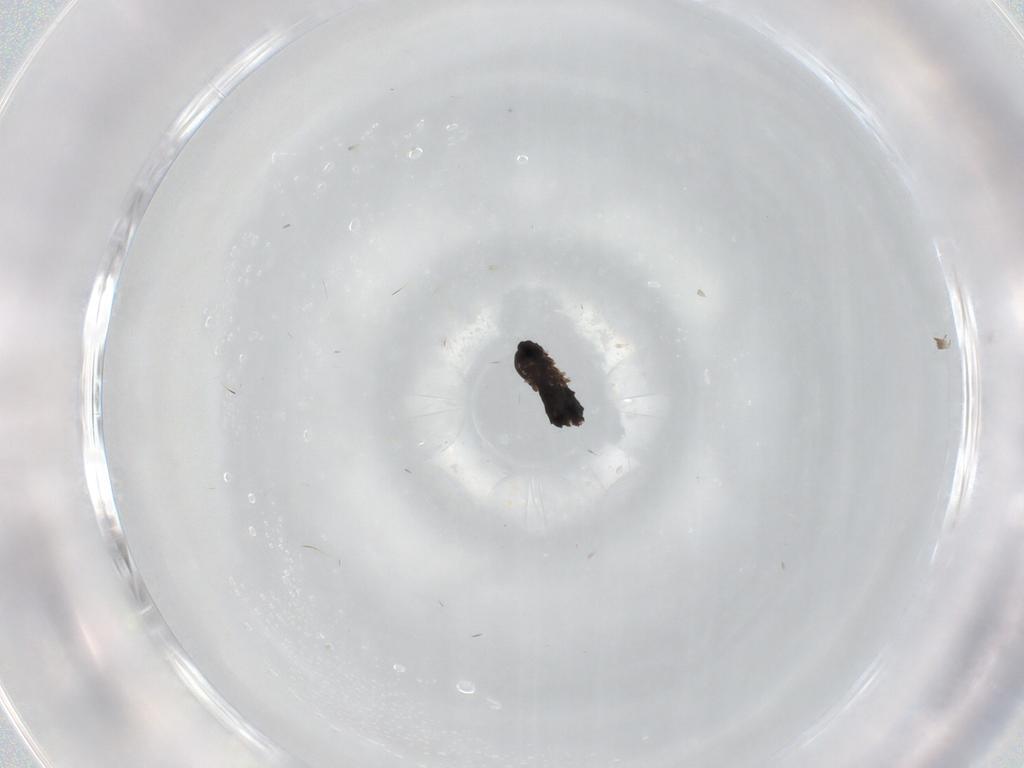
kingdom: Animalia
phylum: Arthropoda
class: Insecta
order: Diptera
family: Scatopsidae
